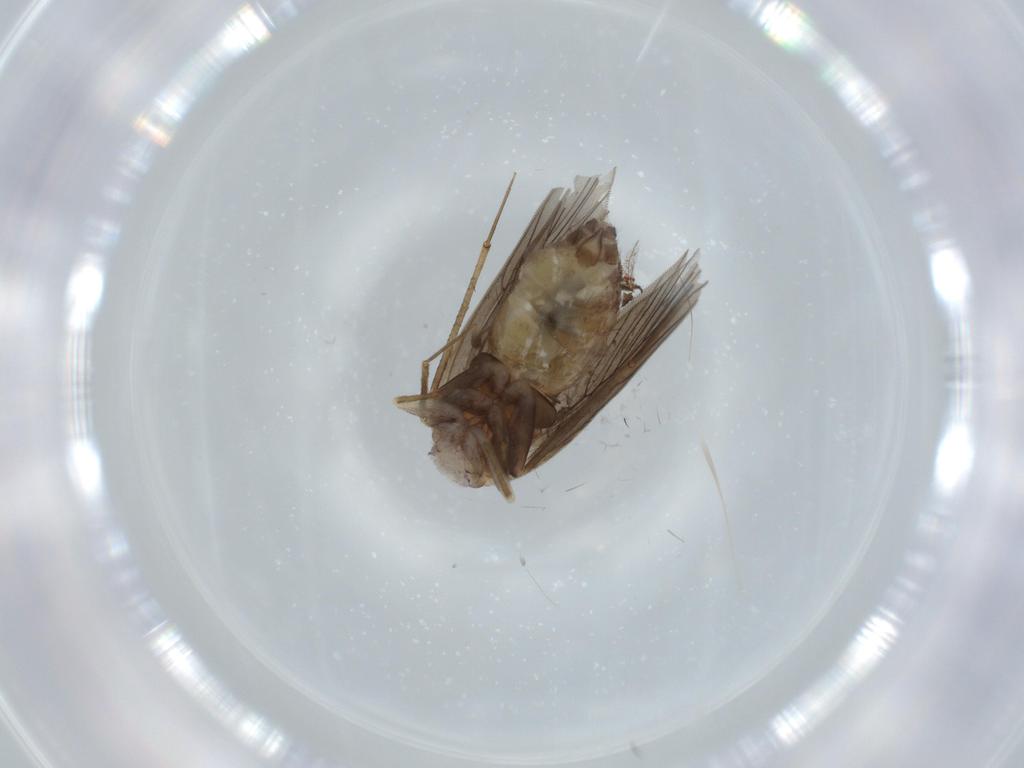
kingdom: Animalia
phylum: Arthropoda
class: Insecta
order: Psocodea
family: Lepidopsocidae
